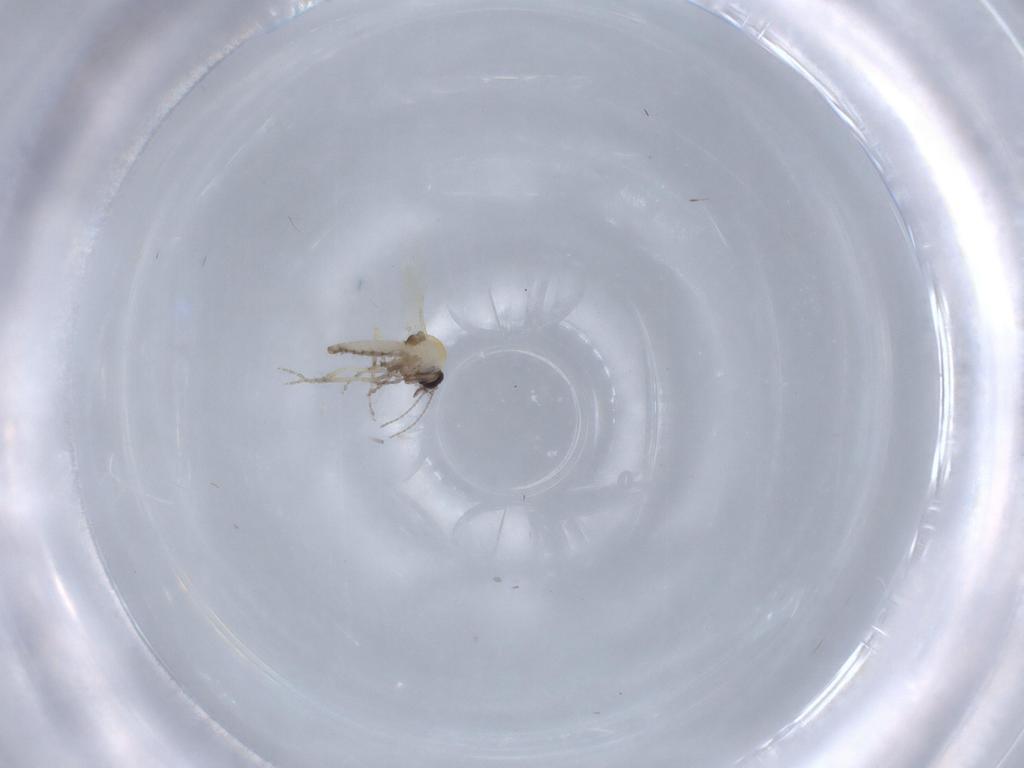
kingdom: Animalia
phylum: Arthropoda
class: Insecta
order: Diptera
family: Ceratopogonidae
